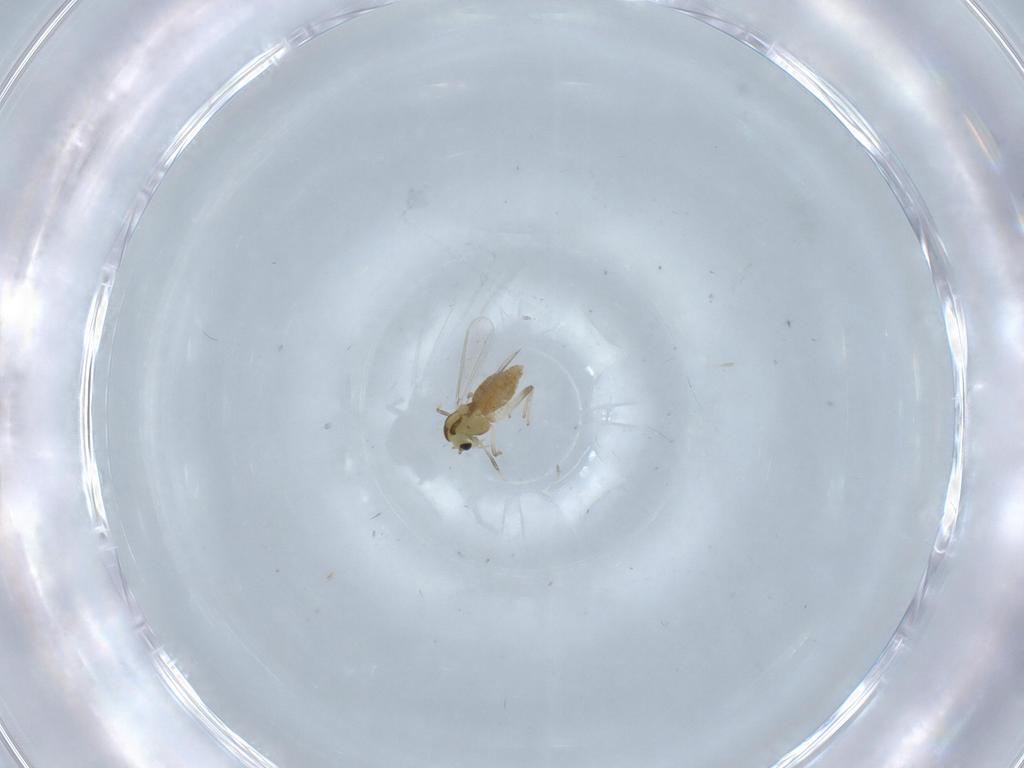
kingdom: Animalia
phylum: Arthropoda
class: Insecta
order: Diptera
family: Chironomidae
